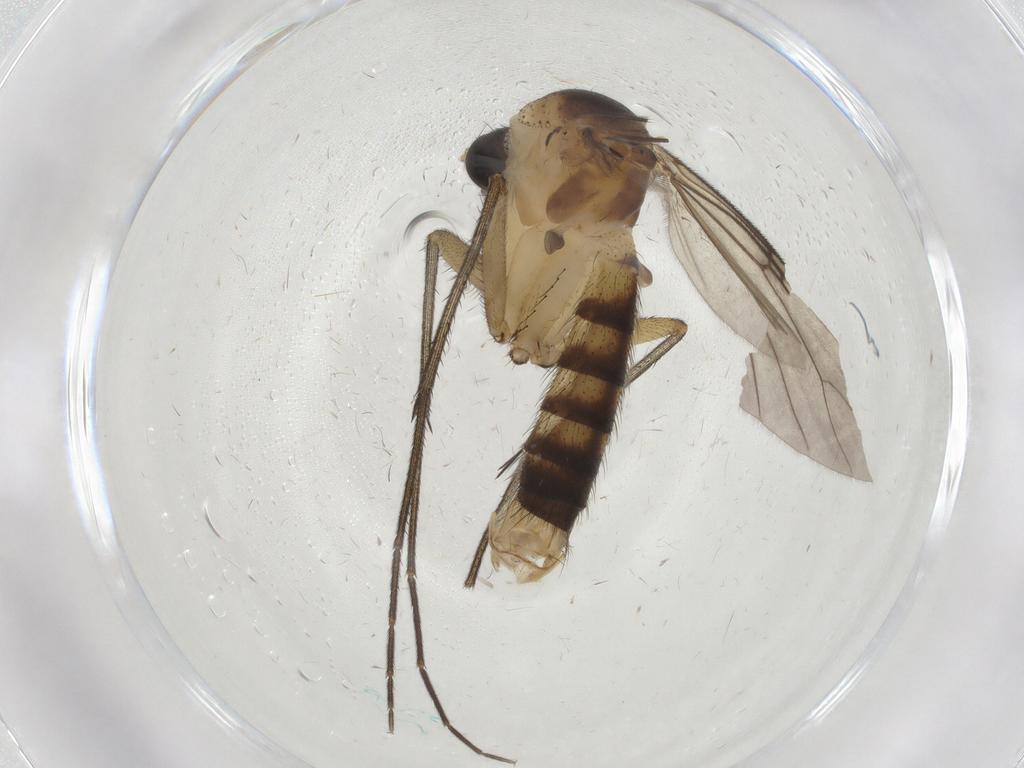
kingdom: Animalia
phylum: Arthropoda
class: Insecta
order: Diptera
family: Mycetophilidae
